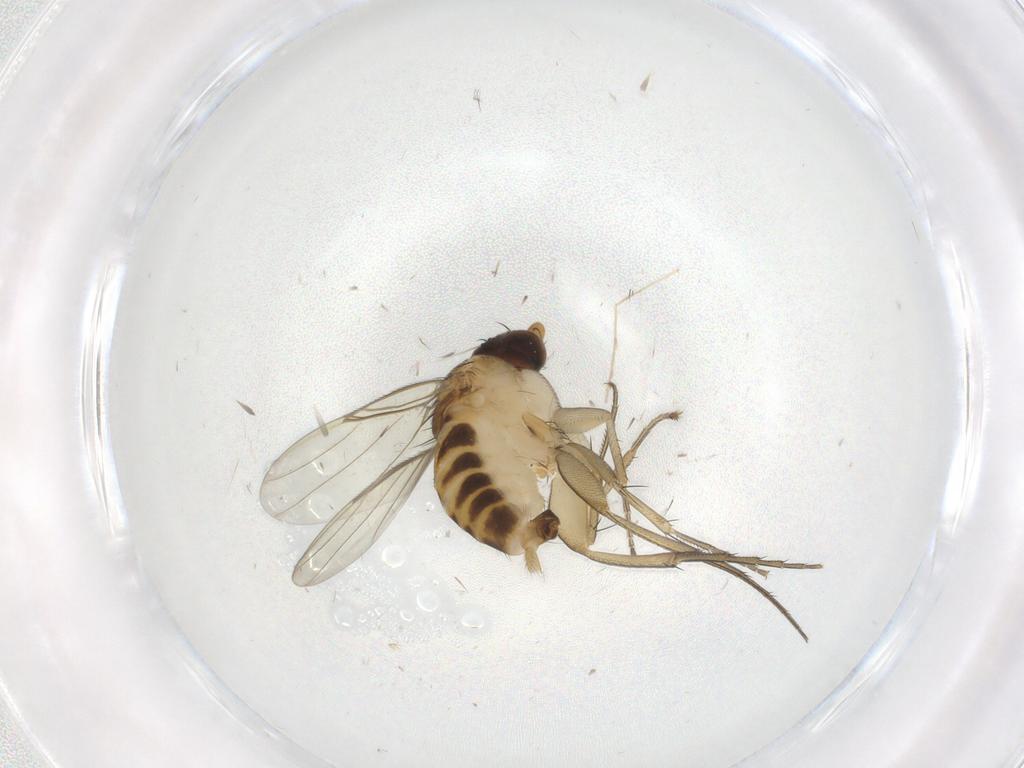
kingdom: Animalia
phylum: Arthropoda
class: Insecta
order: Diptera
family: Phoridae
